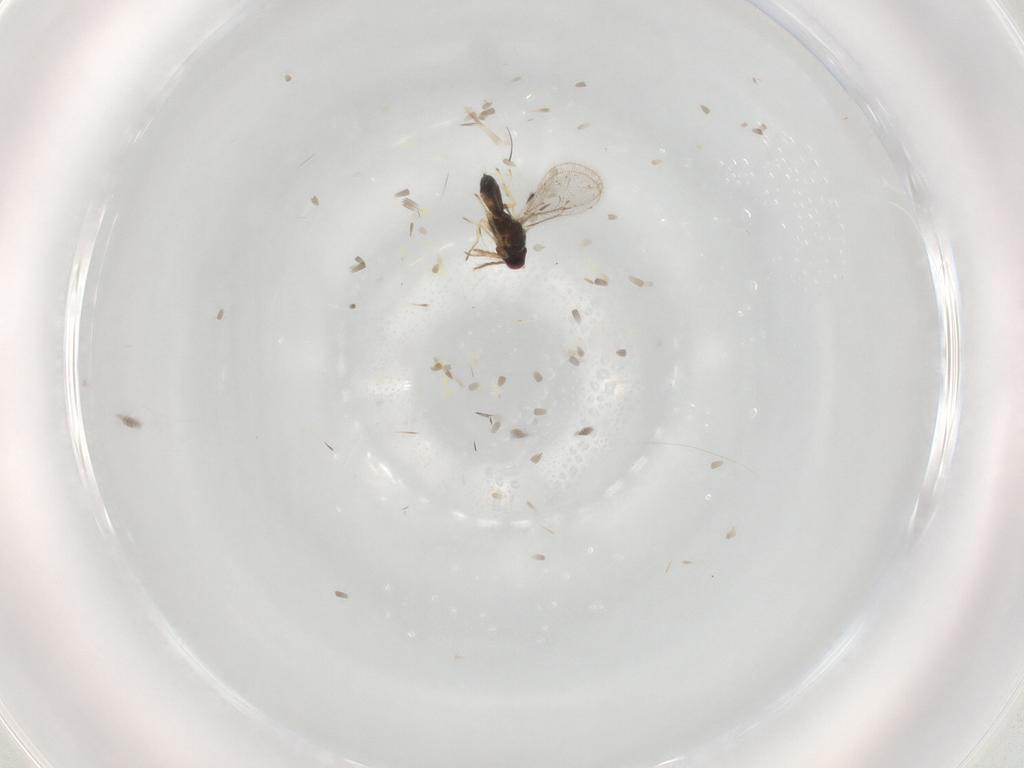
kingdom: Animalia
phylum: Arthropoda
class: Insecta
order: Hymenoptera
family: Eulophidae
